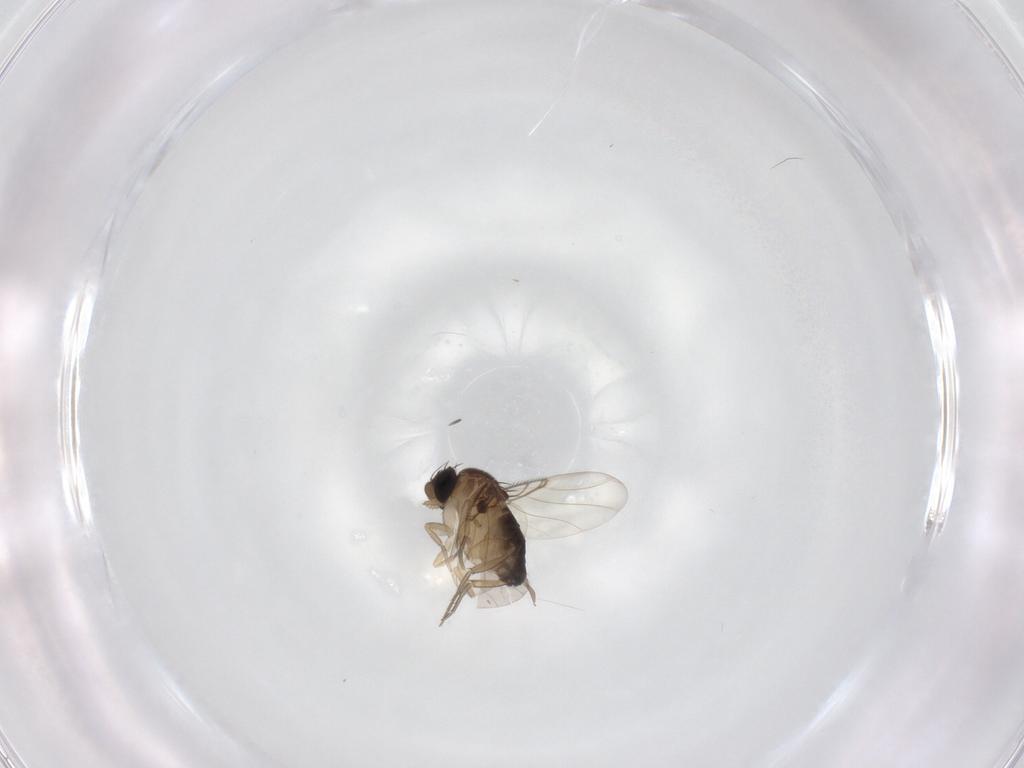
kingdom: Animalia
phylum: Arthropoda
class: Insecta
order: Diptera
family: Phoridae
